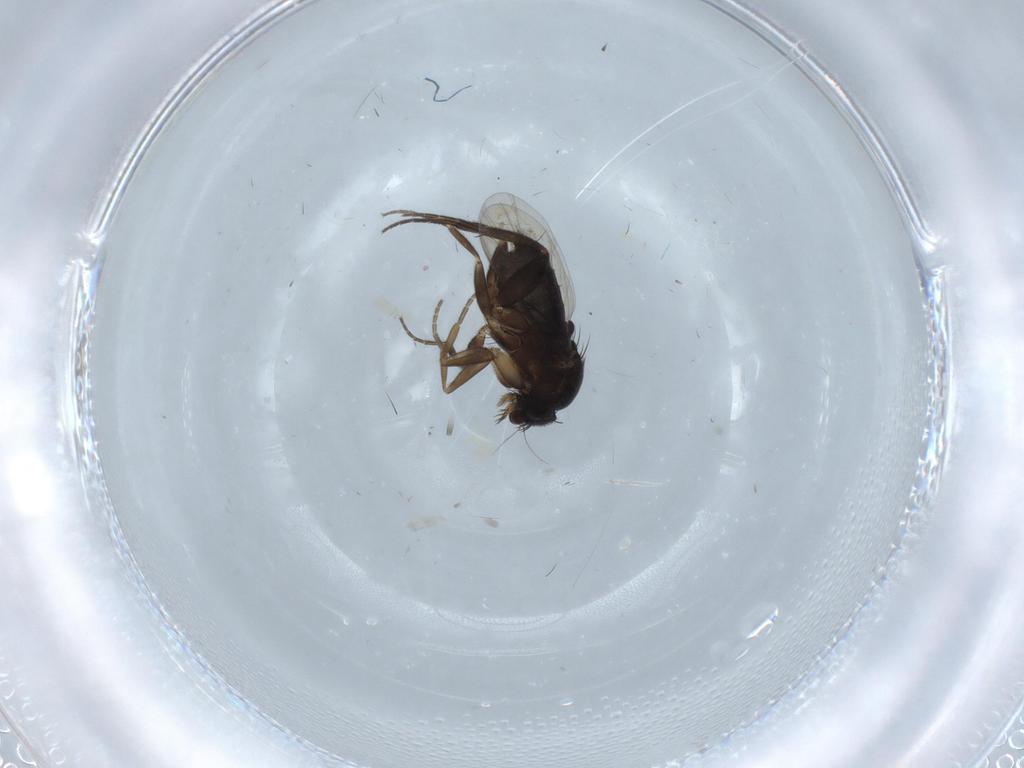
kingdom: Animalia
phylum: Arthropoda
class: Insecta
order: Diptera
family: Phoridae
